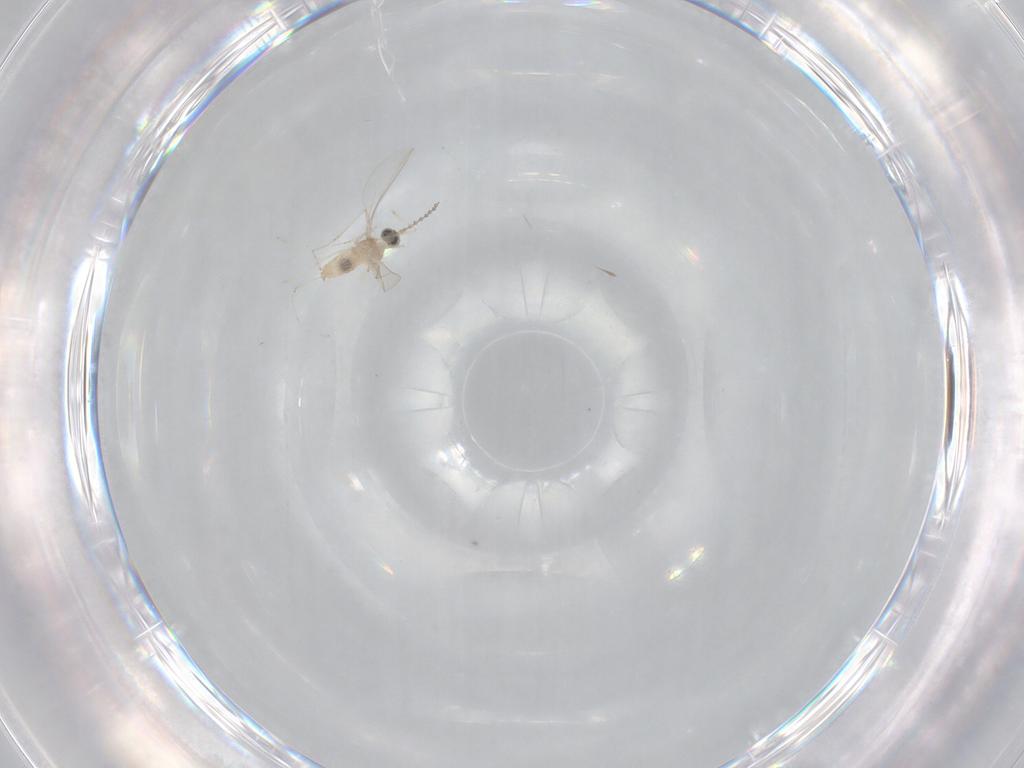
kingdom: Animalia
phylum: Arthropoda
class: Insecta
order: Diptera
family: Cecidomyiidae
